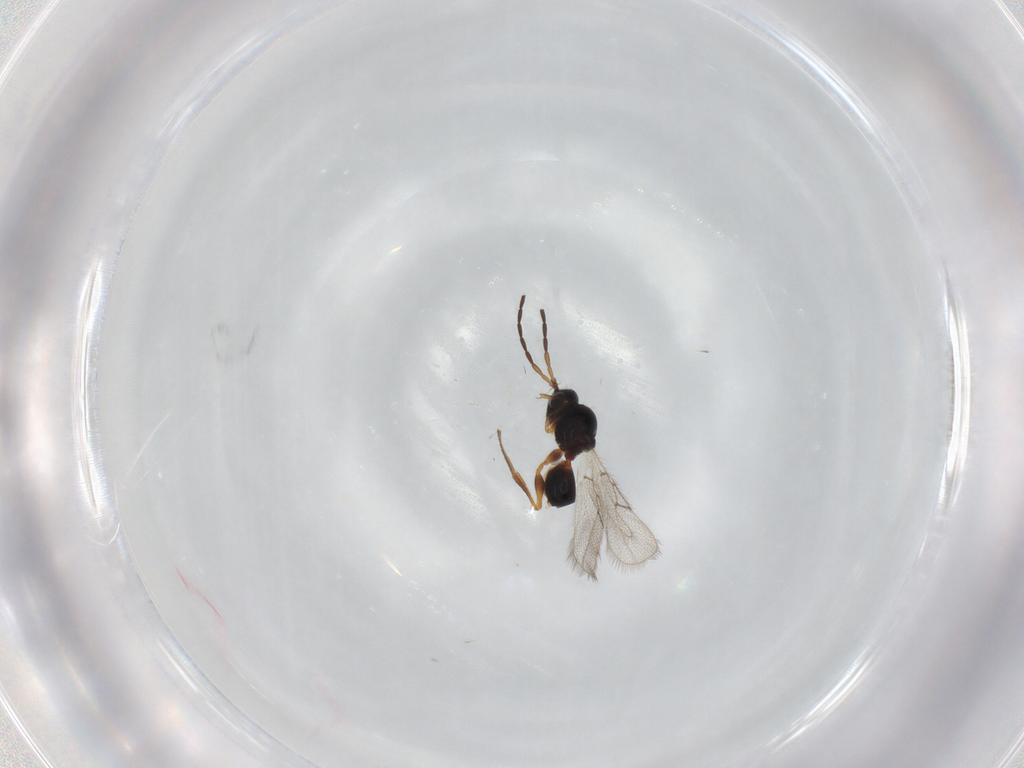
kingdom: Animalia
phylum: Arthropoda
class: Insecta
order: Hymenoptera
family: Figitidae
